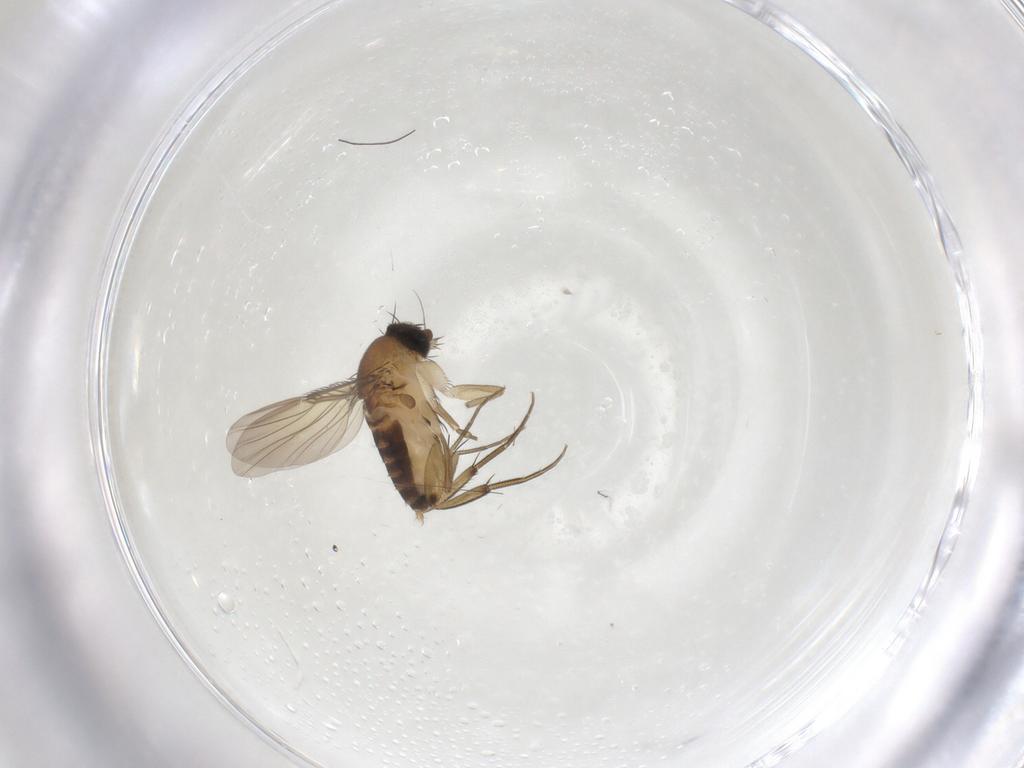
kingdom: Animalia
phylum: Arthropoda
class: Insecta
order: Diptera
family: Phoridae
